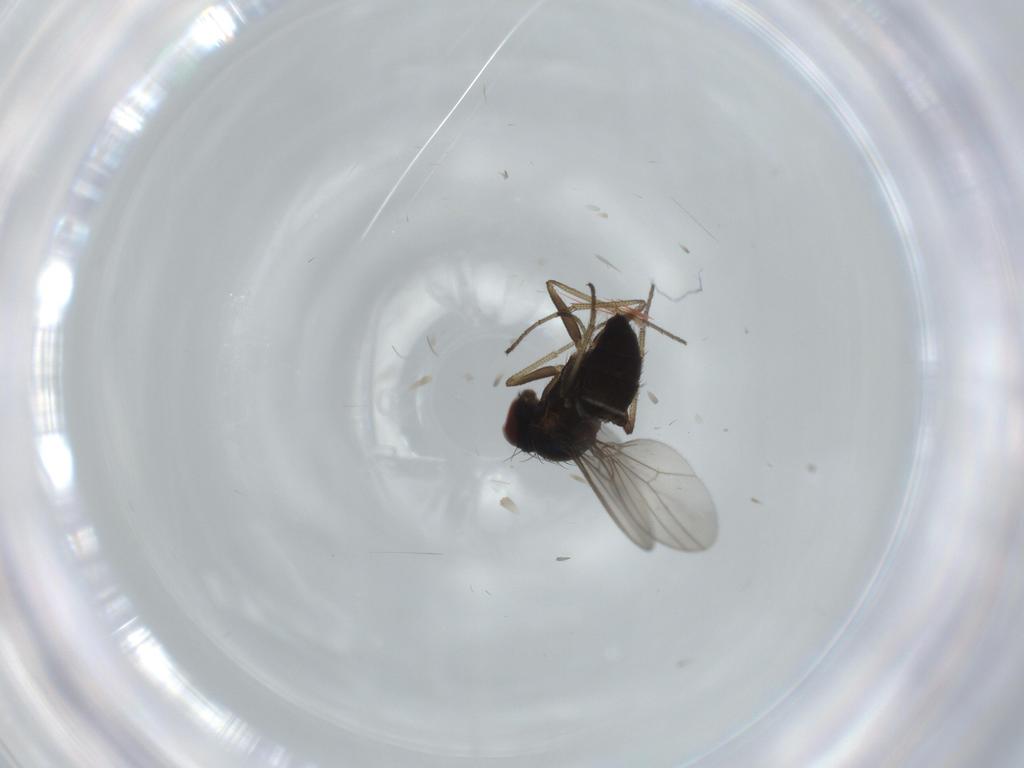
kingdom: Animalia
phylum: Arthropoda
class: Insecta
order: Diptera
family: Dolichopodidae
